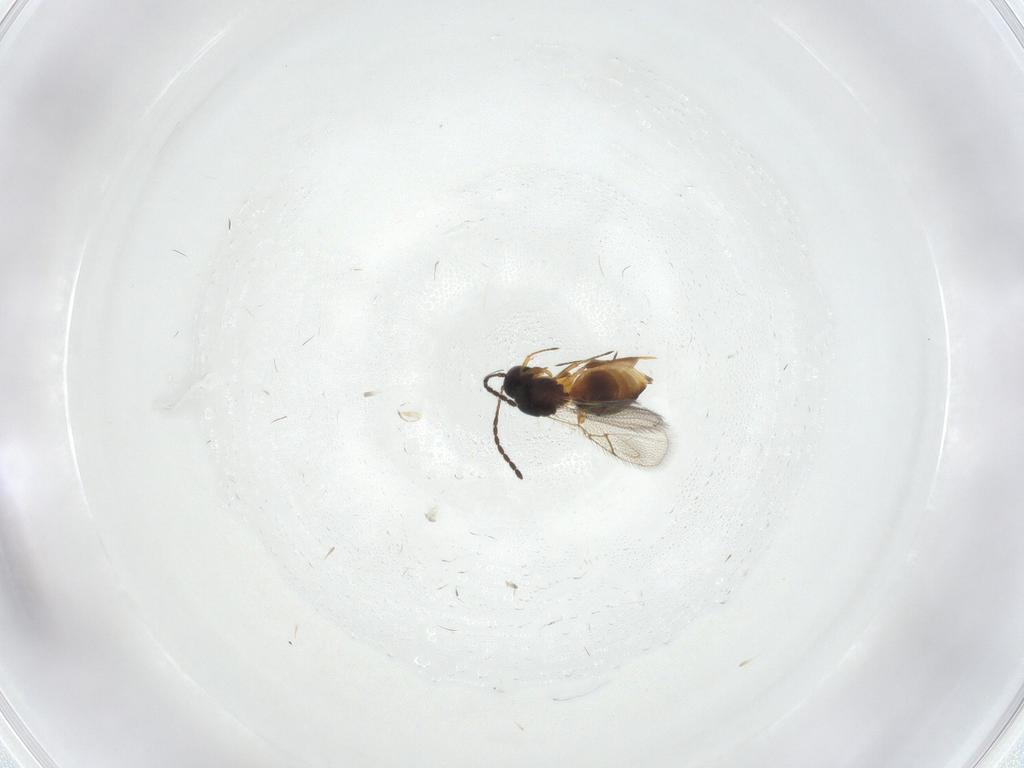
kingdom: Animalia
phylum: Arthropoda
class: Insecta
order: Hymenoptera
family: Figitidae
